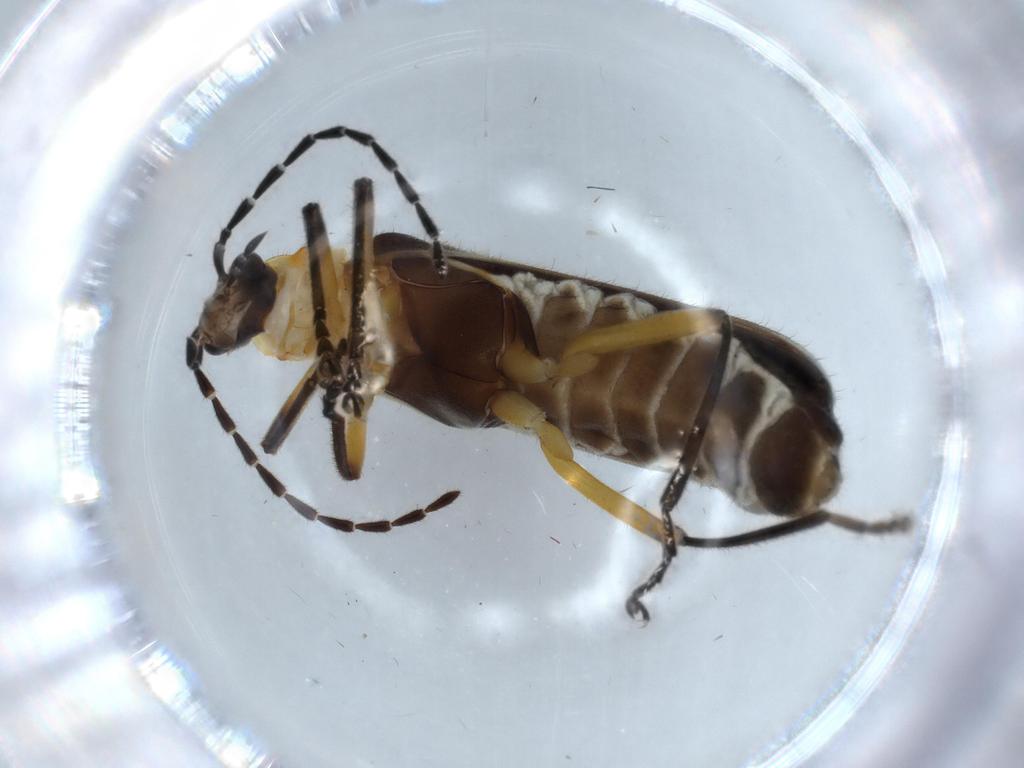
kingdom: Animalia
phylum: Arthropoda
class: Insecta
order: Coleoptera
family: Cantharidae
